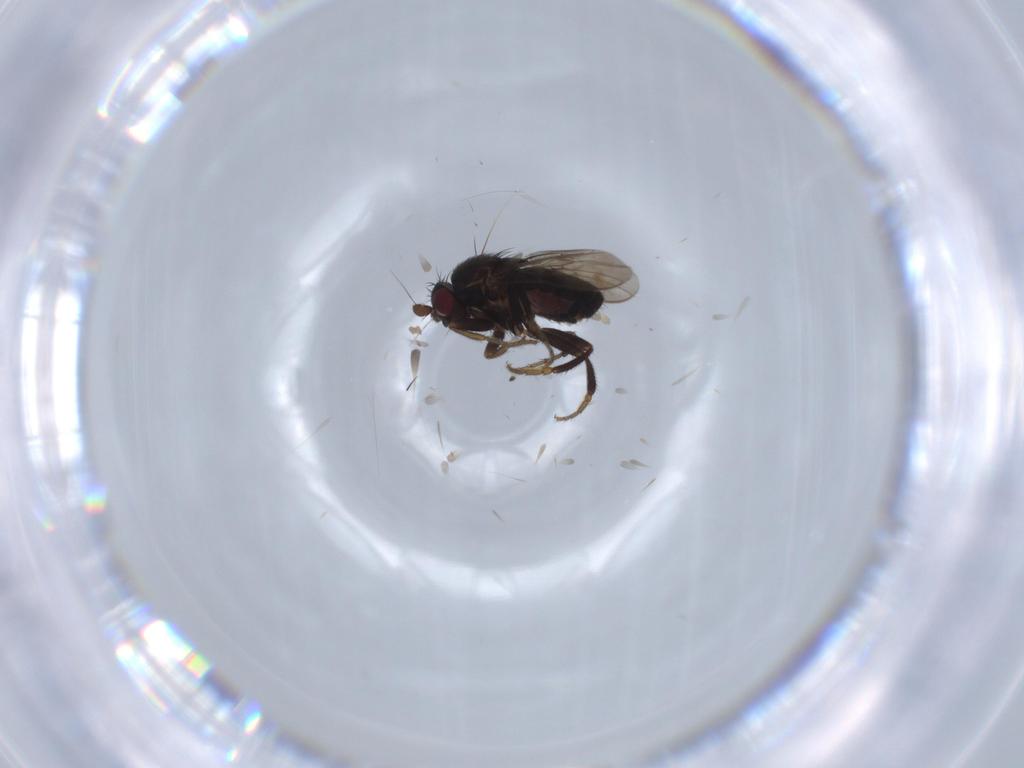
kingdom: Animalia
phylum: Arthropoda
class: Insecta
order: Diptera
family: Sphaeroceridae
